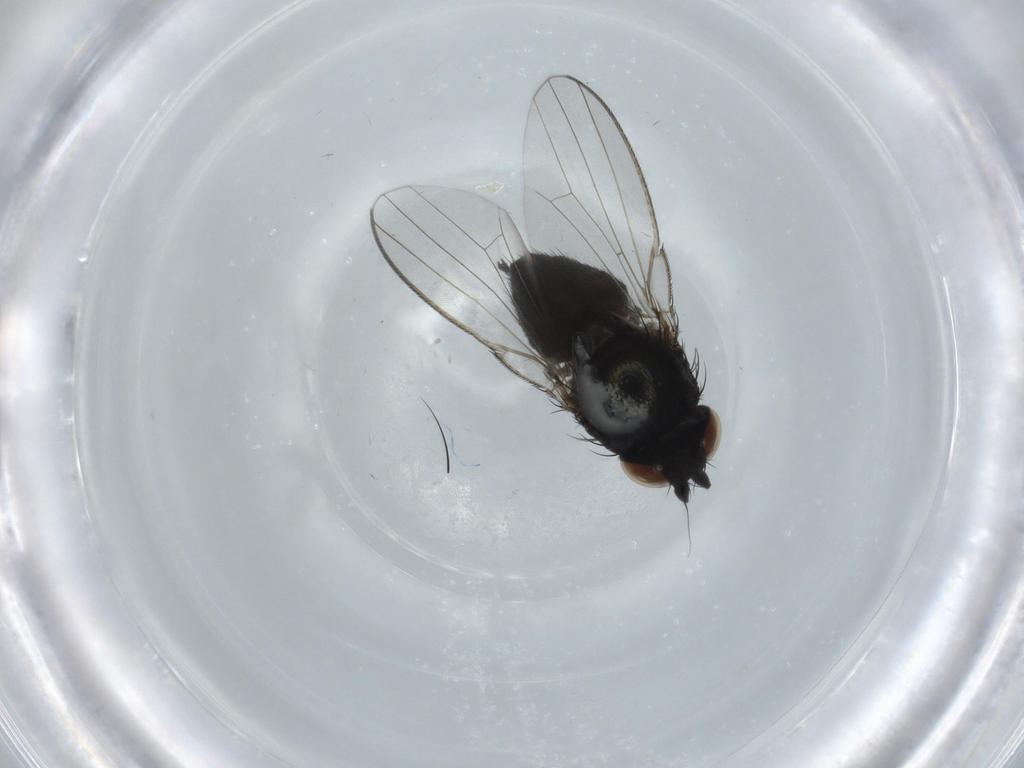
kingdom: Animalia
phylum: Arthropoda
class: Insecta
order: Diptera
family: Milichiidae
